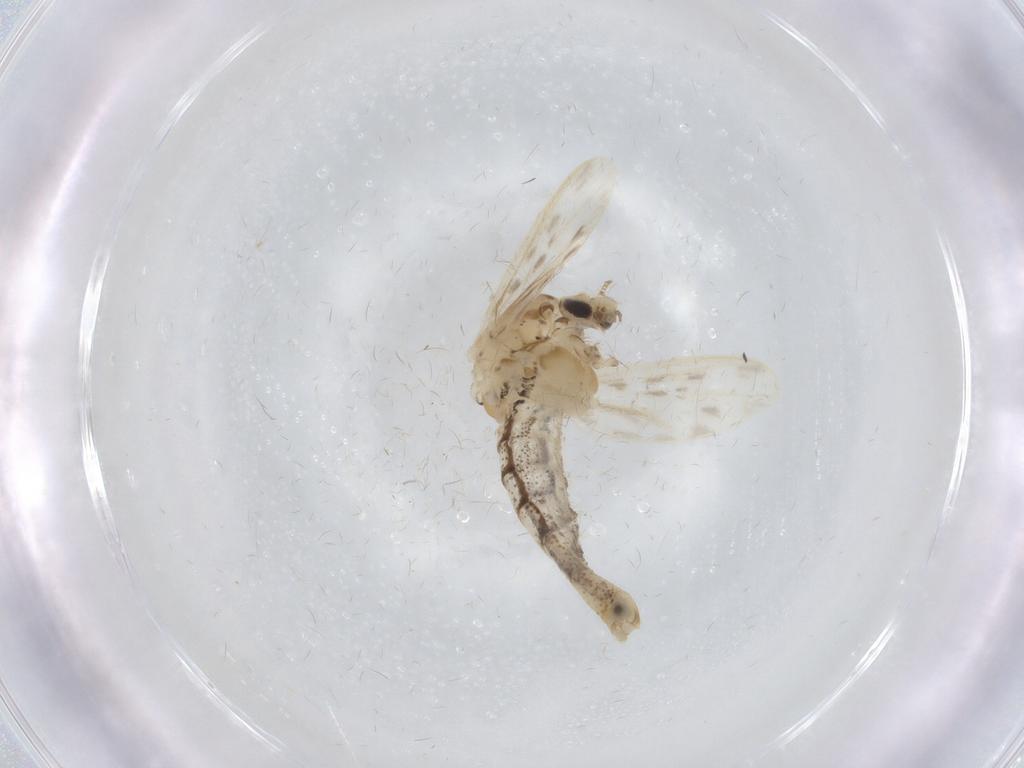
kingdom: Animalia
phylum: Arthropoda
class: Insecta
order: Diptera
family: Chaoboridae
